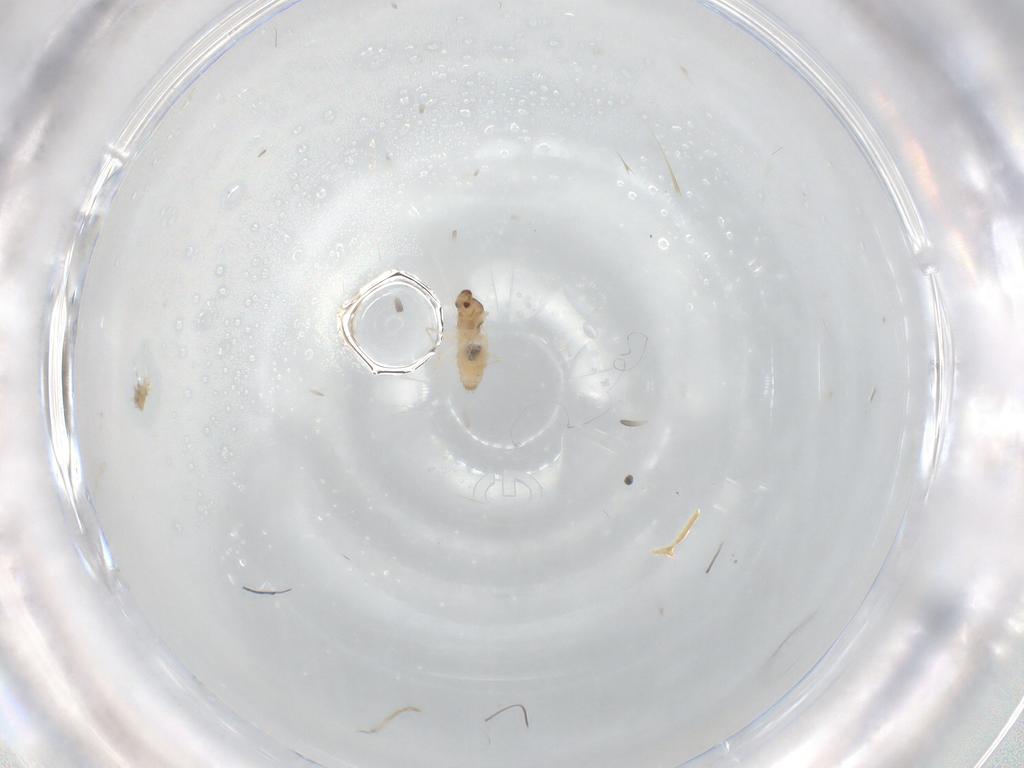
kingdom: Animalia
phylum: Arthropoda
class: Insecta
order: Diptera
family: Cecidomyiidae
